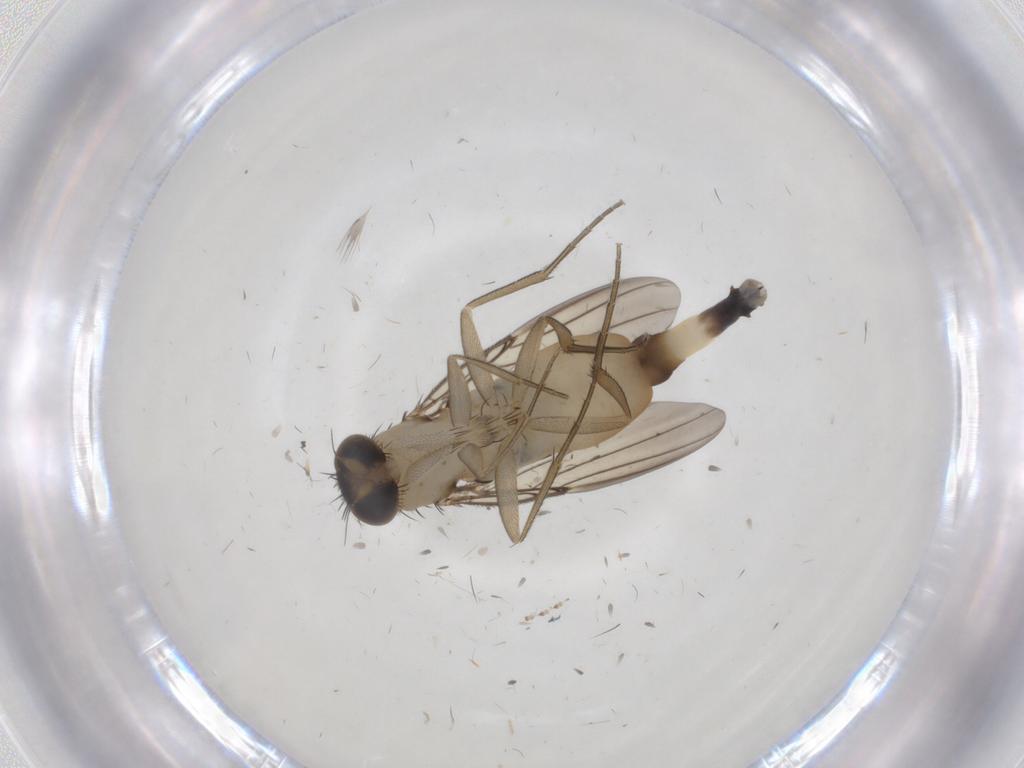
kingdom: Animalia
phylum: Arthropoda
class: Insecta
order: Diptera
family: Phoridae
